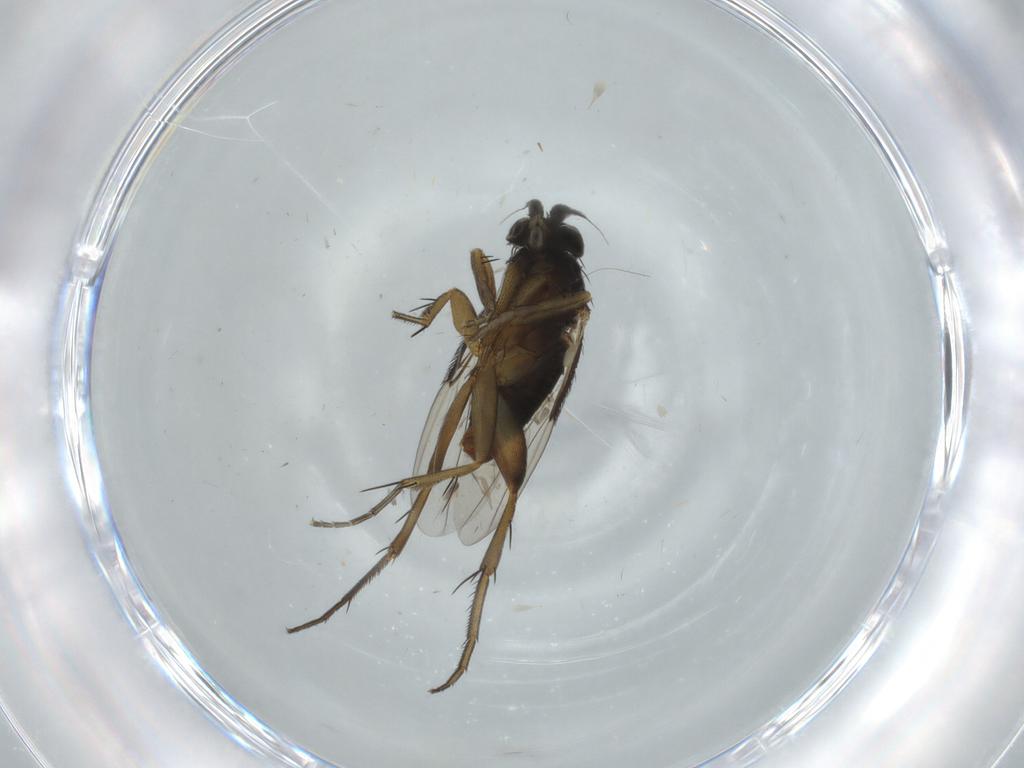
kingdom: Animalia
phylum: Arthropoda
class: Insecta
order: Diptera
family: Phoridae
